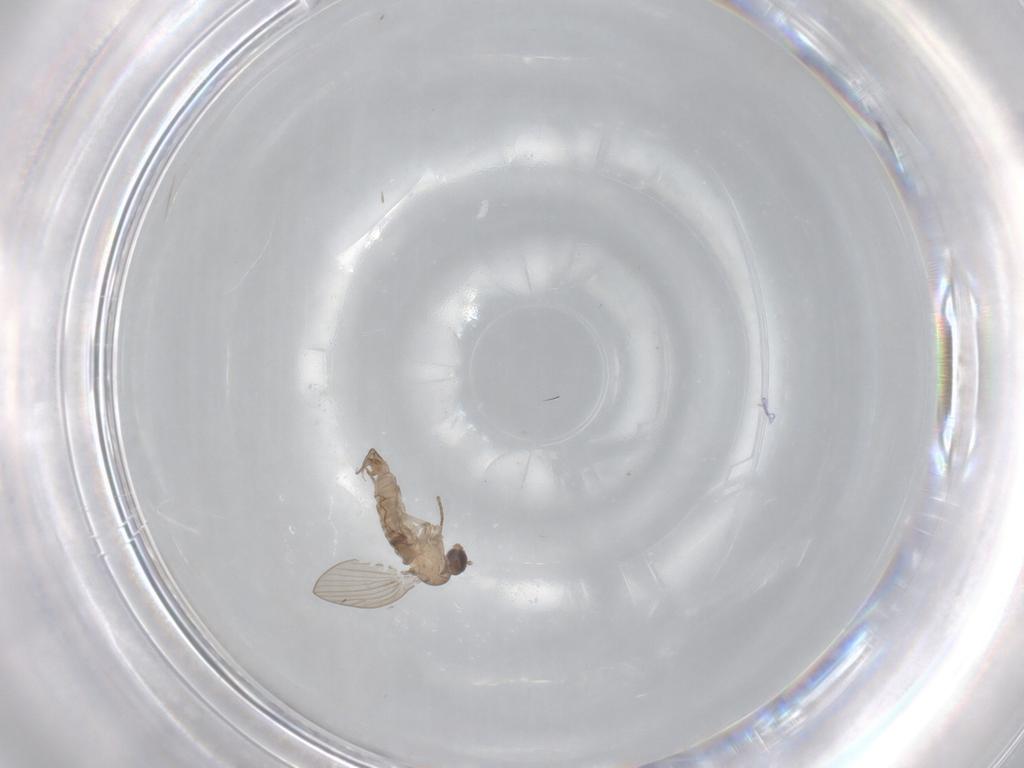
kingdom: Animalia
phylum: Arthropoda
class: Insecta
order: Diptera
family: Psychodidae
